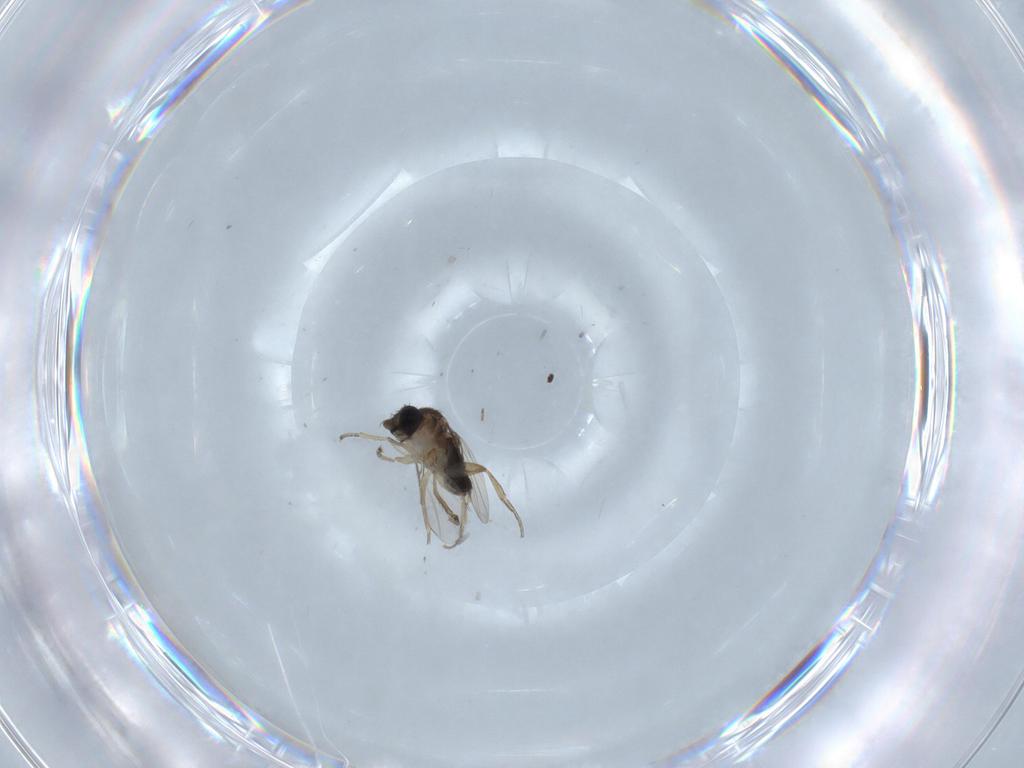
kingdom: Animalia
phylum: Arthropoda
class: Insecta
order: Diptera
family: Phoridae
